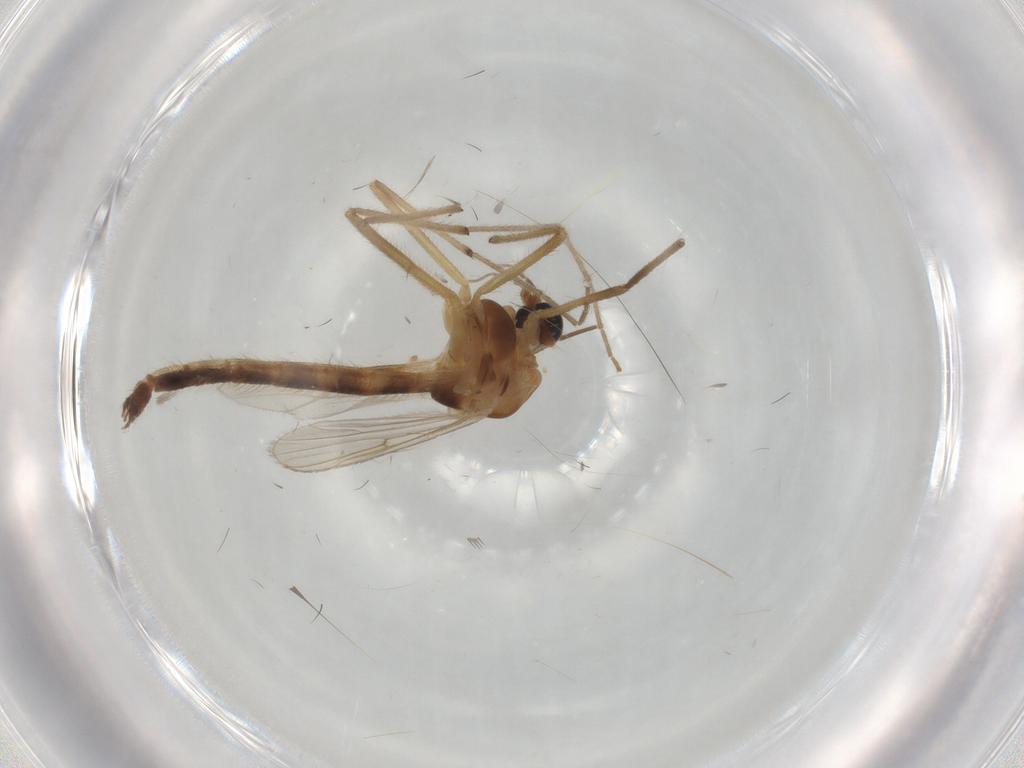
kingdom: Animalia
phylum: Arthropoda
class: Insecta
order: Diptera
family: Chironomidae
